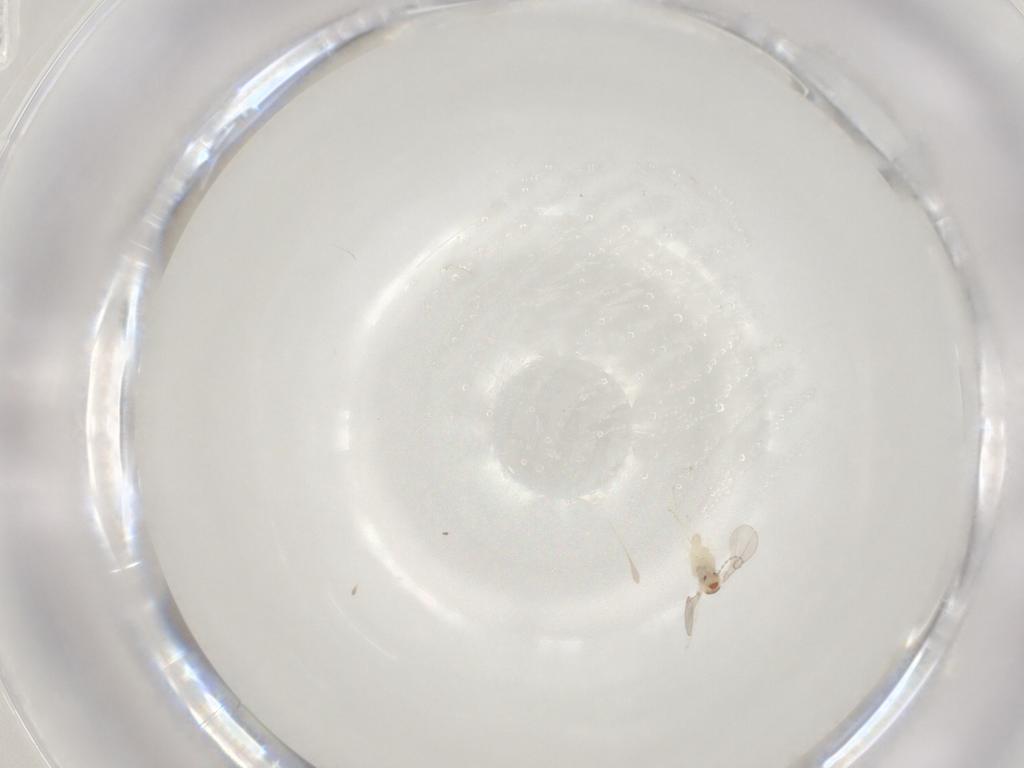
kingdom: Animalia
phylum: Arthropoda
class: Insecta
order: Diptera
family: Cecidomyiidae
